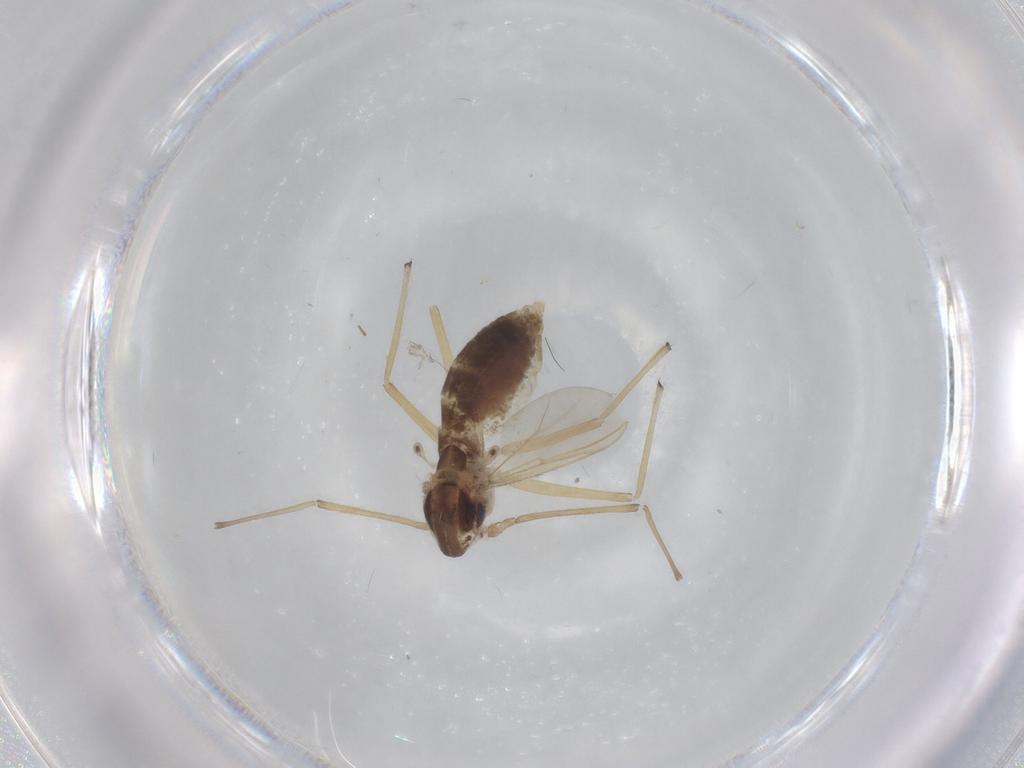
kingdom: Animalia
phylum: Arthropoda
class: Insecta
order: Diptera
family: Chironomidae
